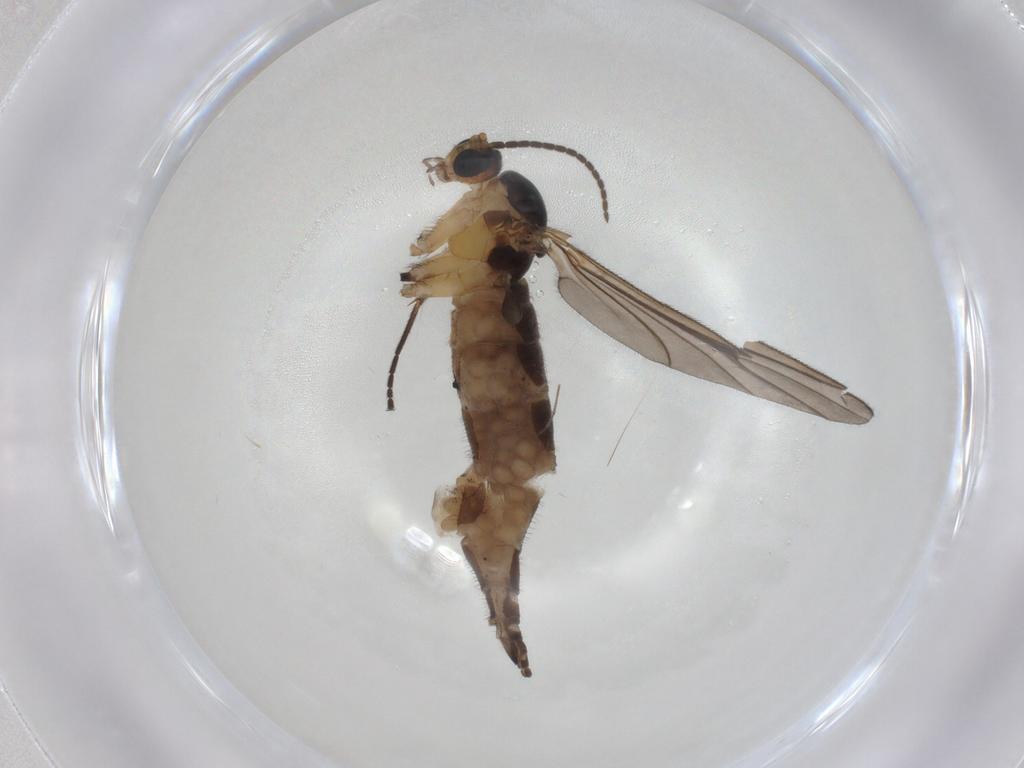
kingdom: Animalia
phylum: Arthropoda
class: Insecta
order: Diptera
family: Sciaridae
